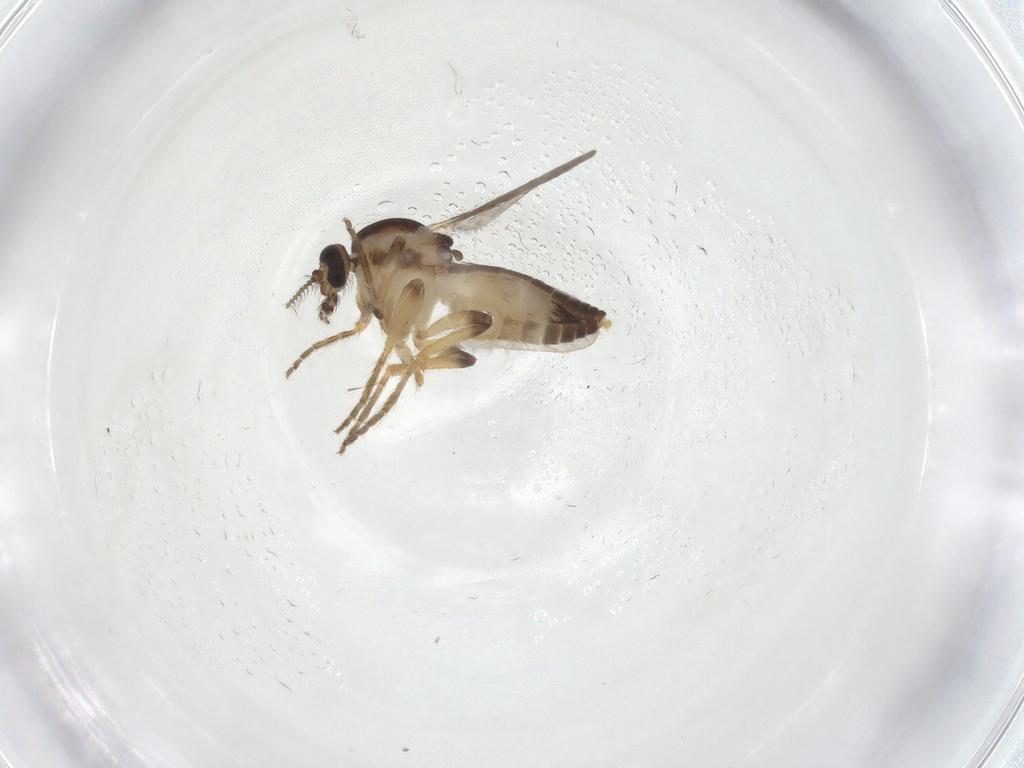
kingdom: Animalia
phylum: Arthropoda
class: Insecta
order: Diptera
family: Ceratopogonidae
